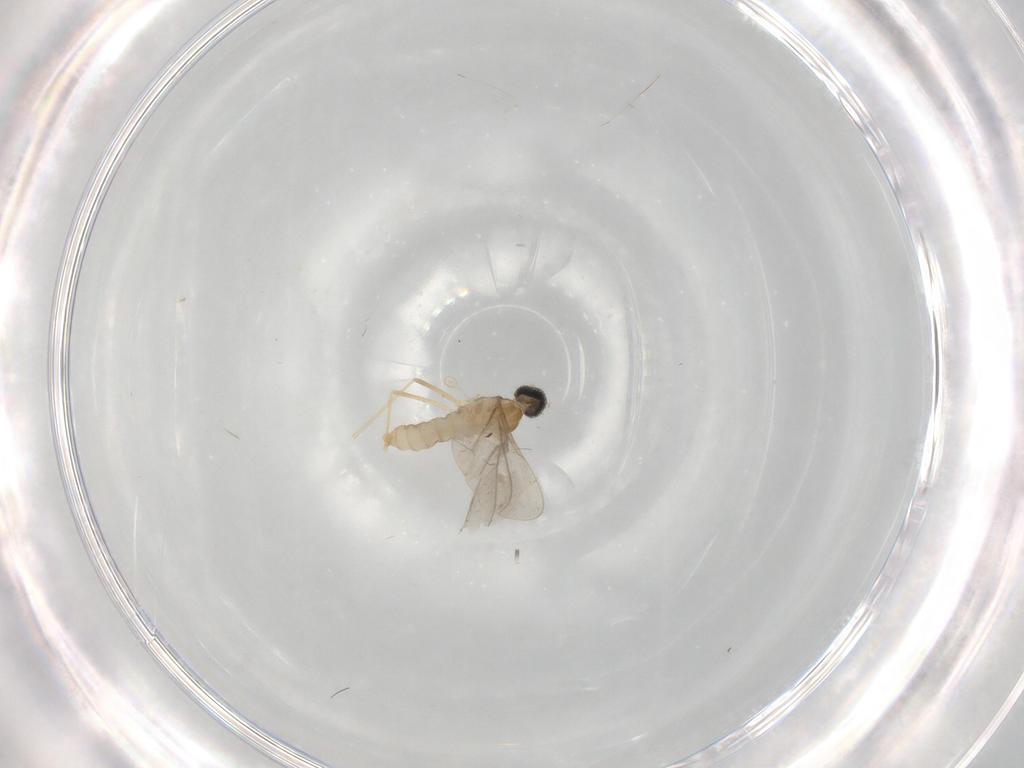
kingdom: Animalia
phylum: Arthropoda
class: Insecta
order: Diptera
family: Cecidomyiidae
